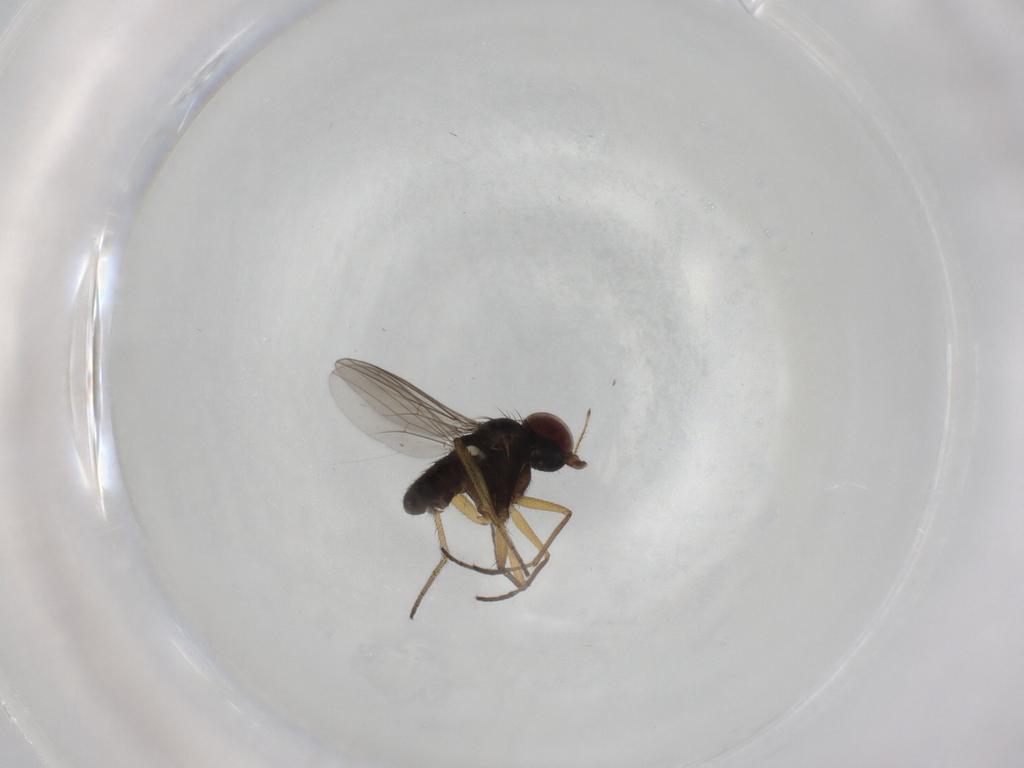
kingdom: Animalia
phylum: Arthropoda
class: Insecta
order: Diptera
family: Dolichopodidae
